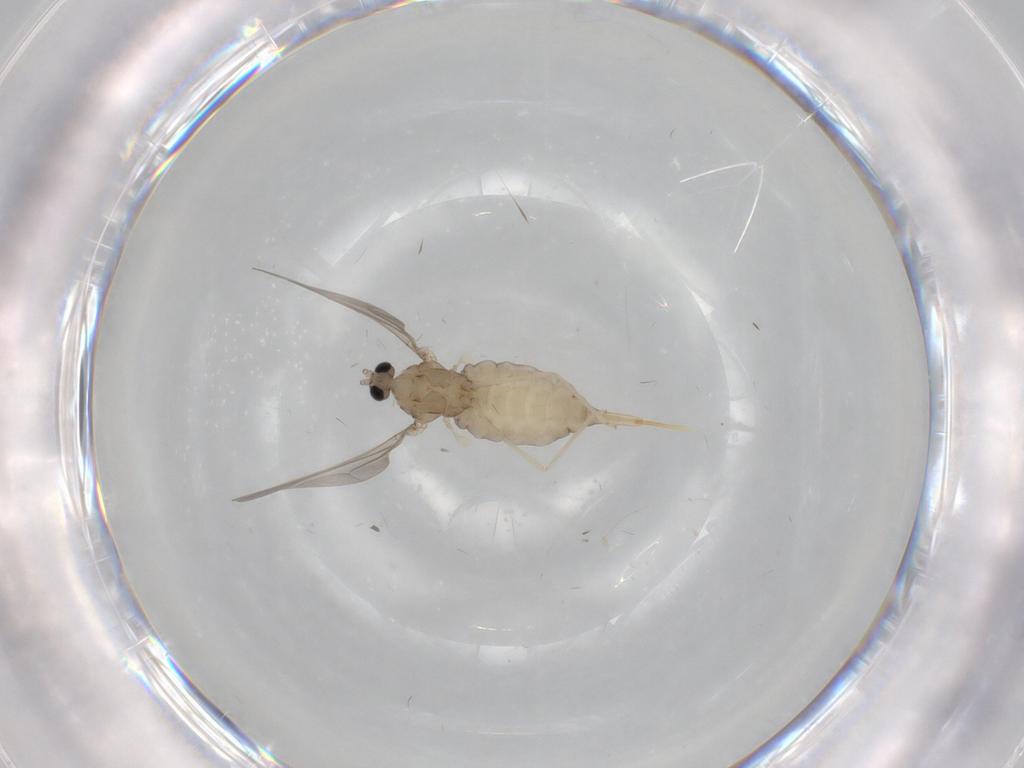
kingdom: Animalia
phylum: Arthropoda
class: Insecta
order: Diptera
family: Cecidomyiidae
